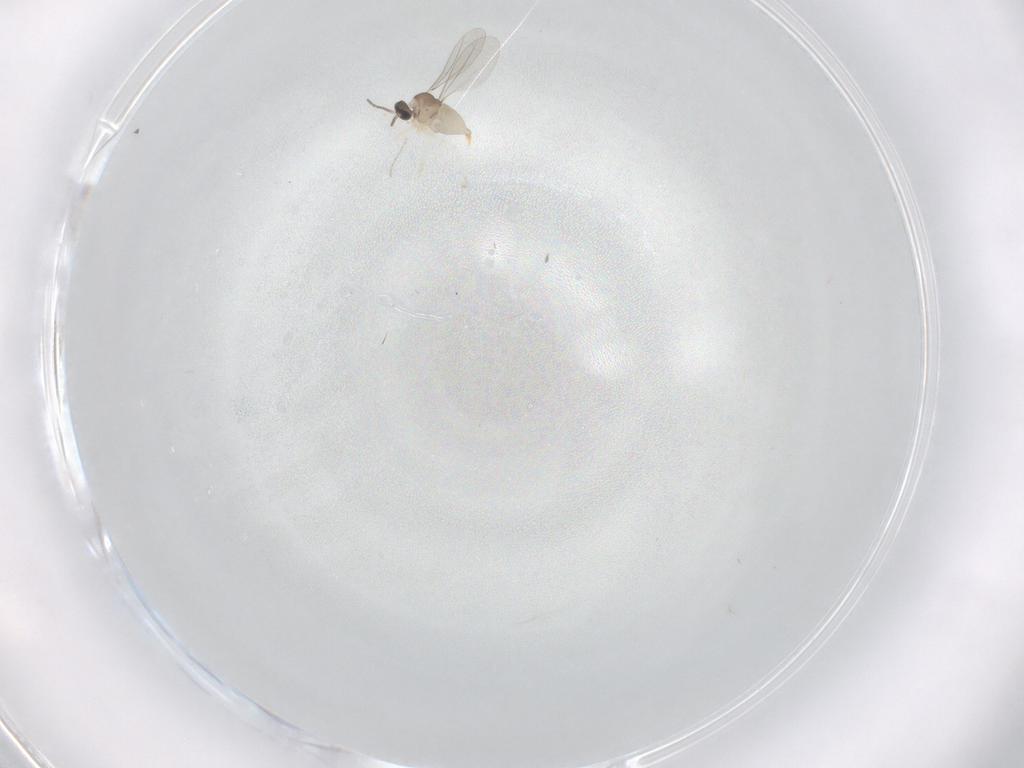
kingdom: Animalia
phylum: Arthropoda
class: Insecta
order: Diptera
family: Cecidomyiidae
